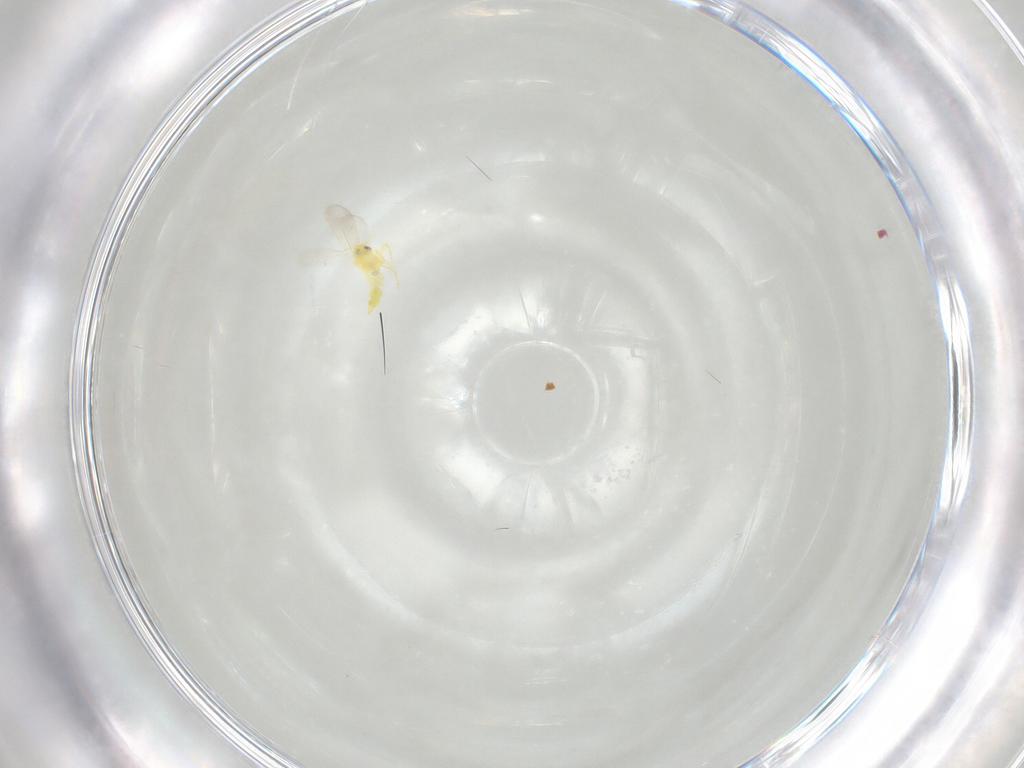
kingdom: Animalia
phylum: Arthropoda
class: Insecta
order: Hemiptera
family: Aleyrodidae
